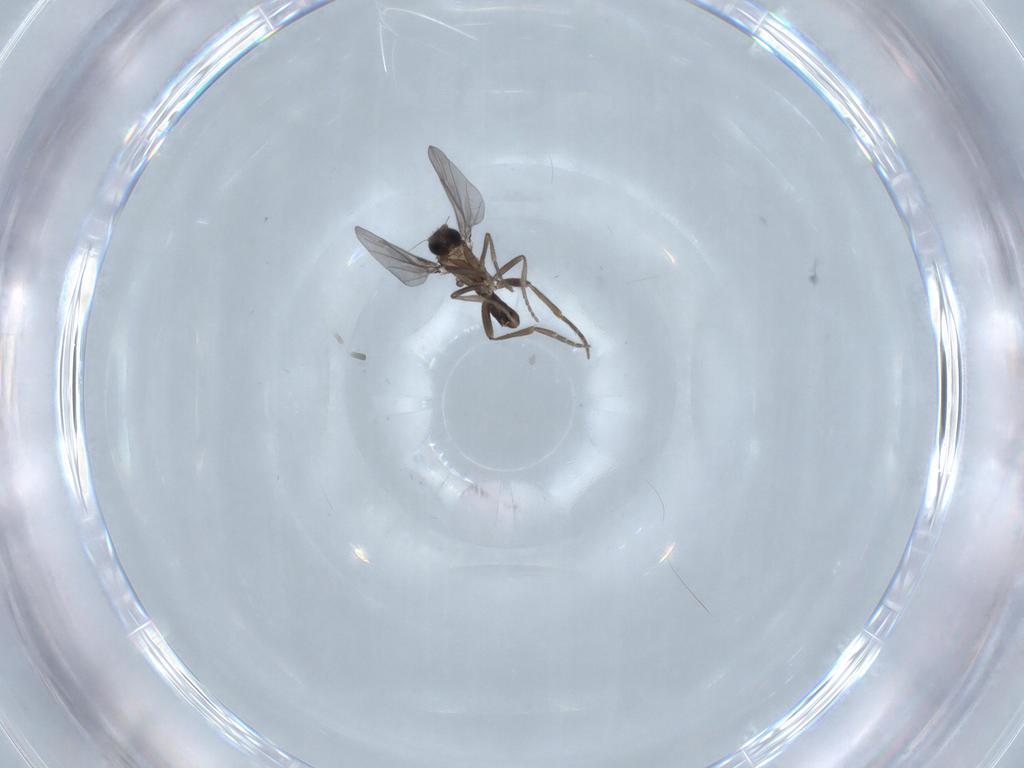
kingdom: Animalia
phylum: Arthropoda
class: Insecta
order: Diptera
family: Phoridae
